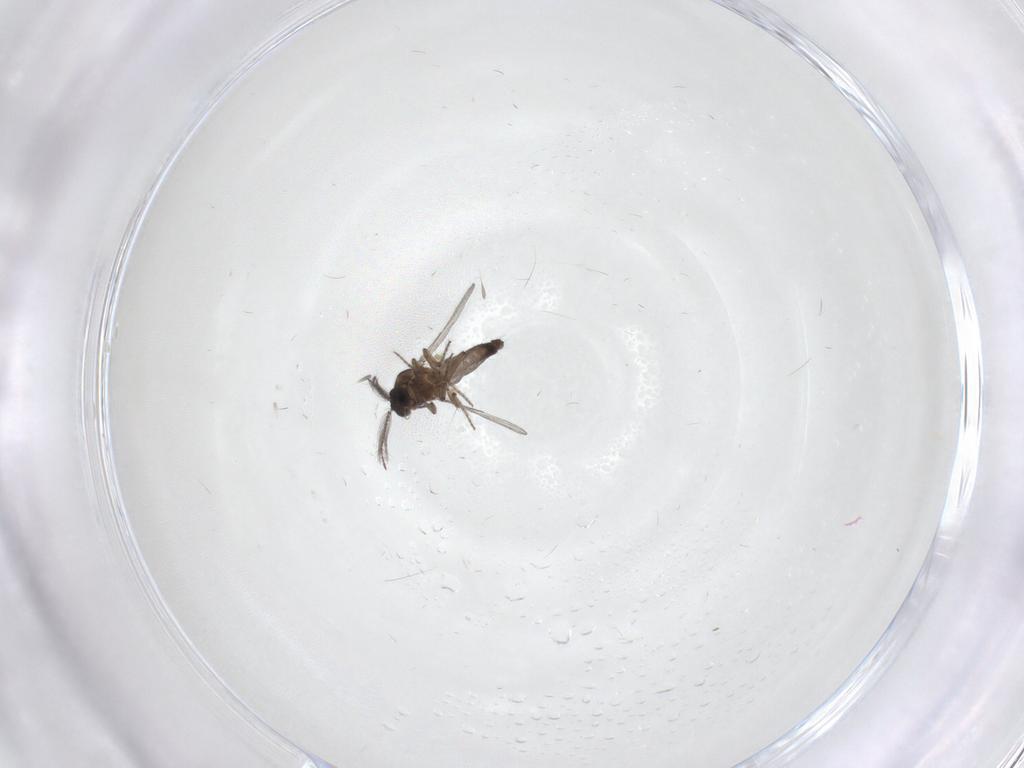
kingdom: Animalia
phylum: Arthropoda
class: Insecta
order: Diptera
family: Ceratopogonidae
